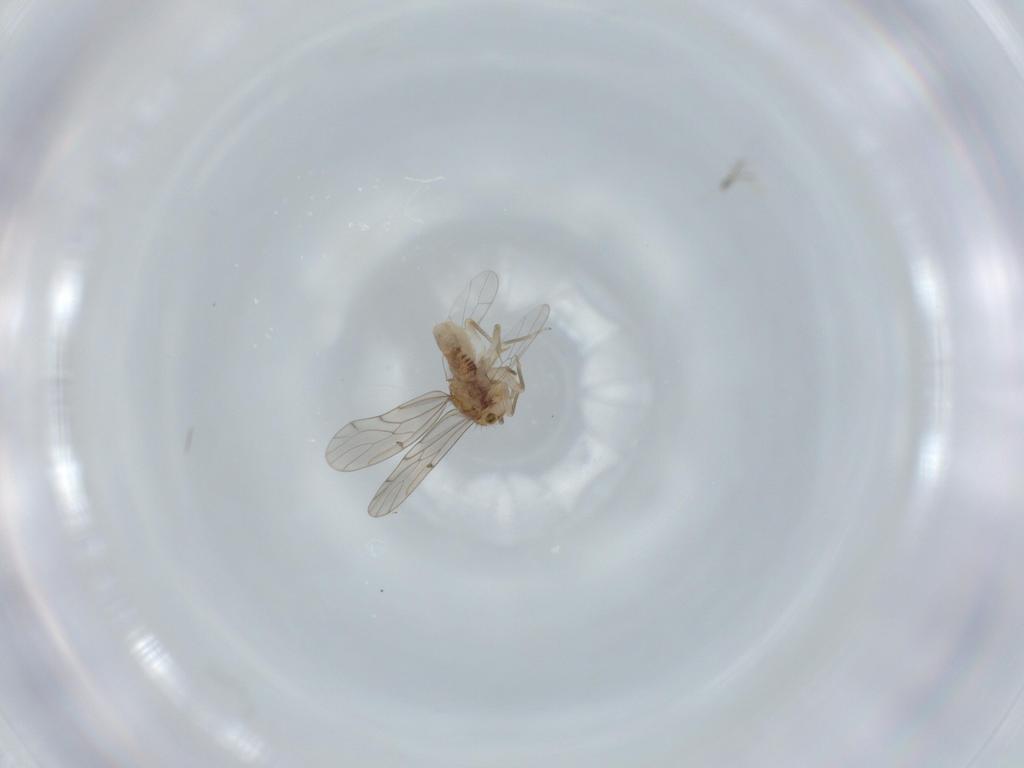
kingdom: Animalia
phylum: Arthropoda
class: Insecta
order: Psocodea
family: Ectopsocidae
